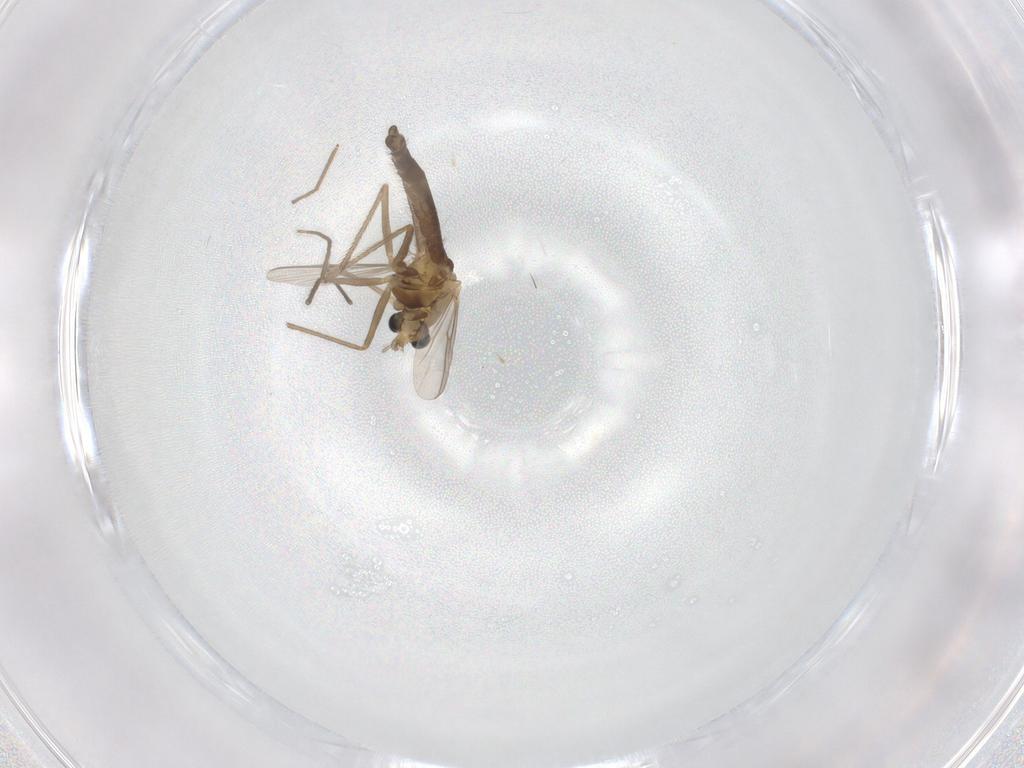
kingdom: Animalia
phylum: Arthropoda
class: Insecta
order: Diptera
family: Chironomidae
